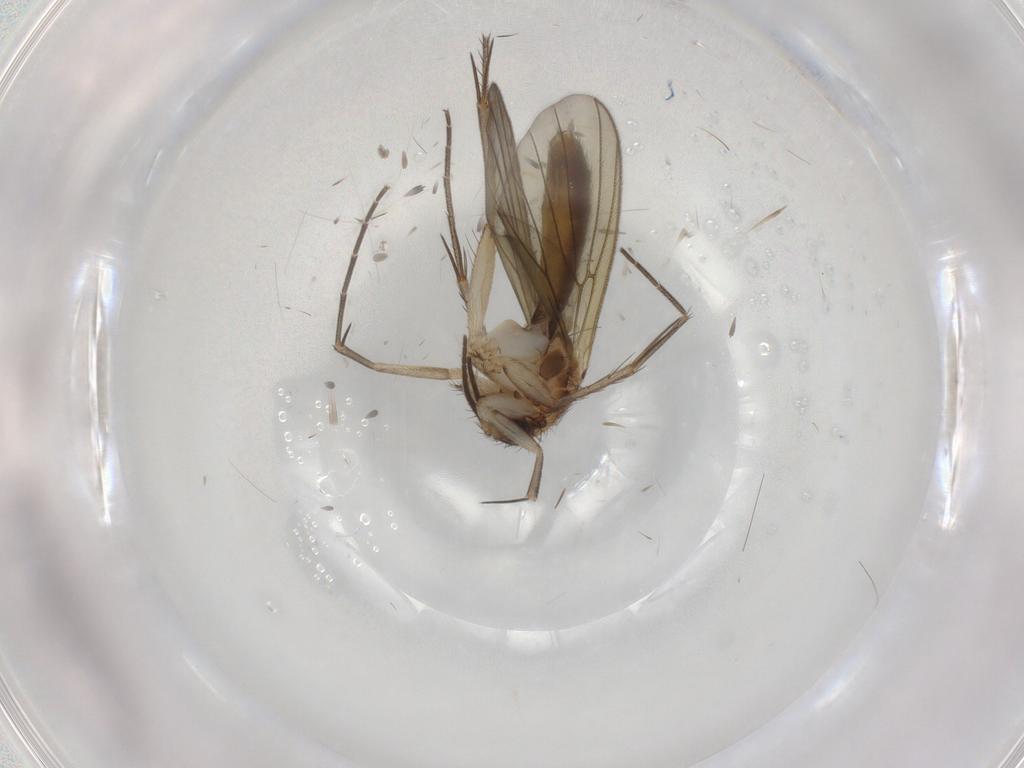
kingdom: Animalia
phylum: Arthropoda
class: Insecta
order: Diptera
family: Mycetophilidae
